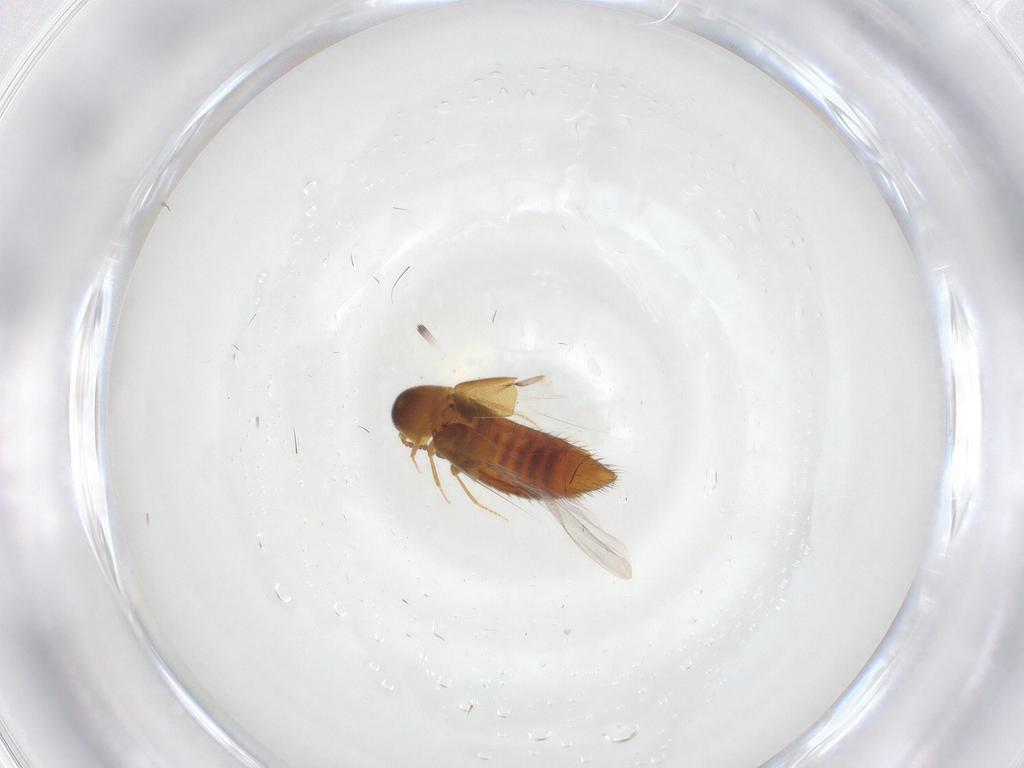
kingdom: Animalia
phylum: Arthropoda
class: Insecta
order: Coleoptera
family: Staphylinidae
